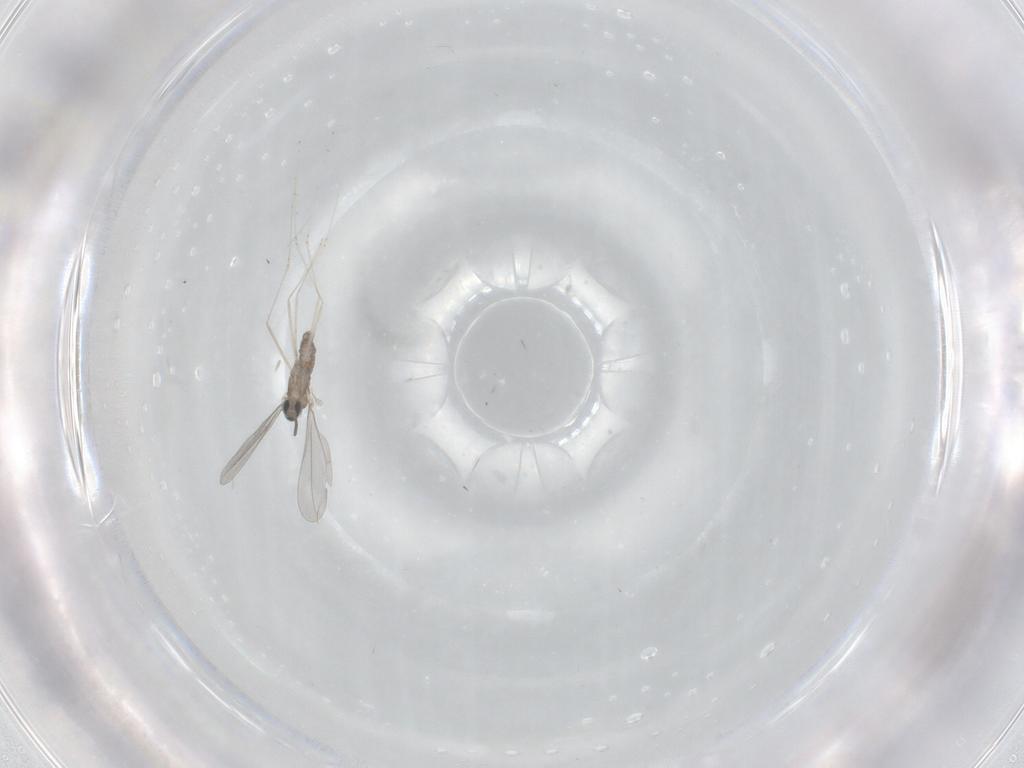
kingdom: Animalia
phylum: Arthropoda
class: Insecta
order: Diptera
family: Cecidomyiidae
